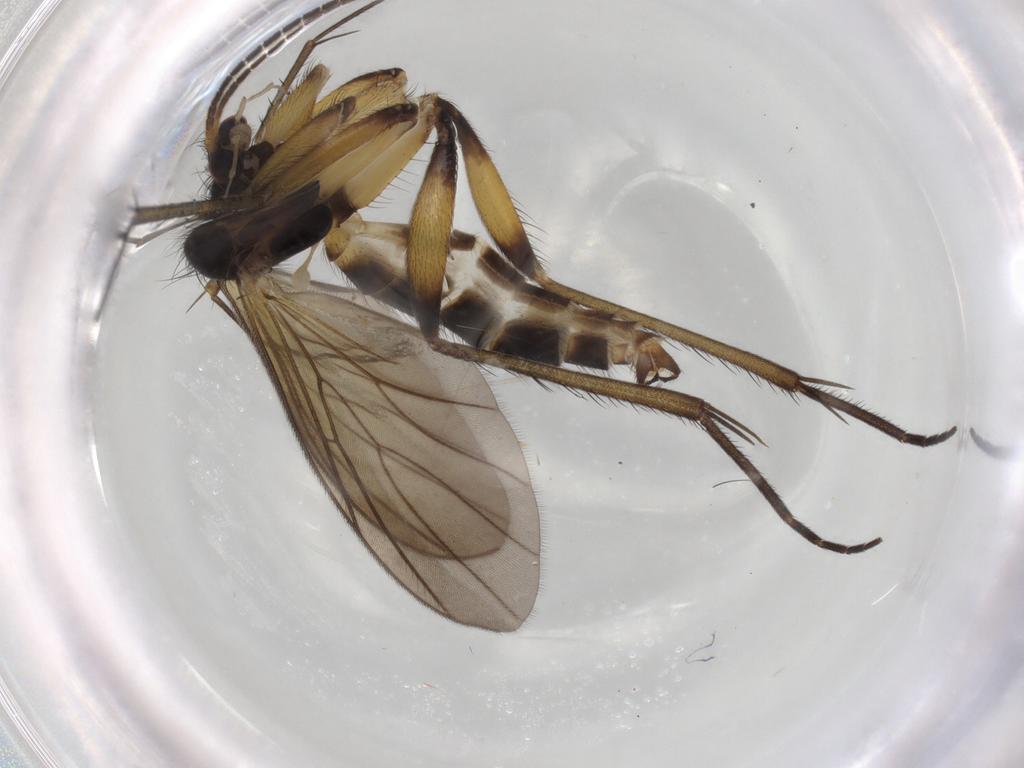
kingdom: Animalia
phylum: Arthropoda
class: Insecta
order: Diptera
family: Mycetophilidae
